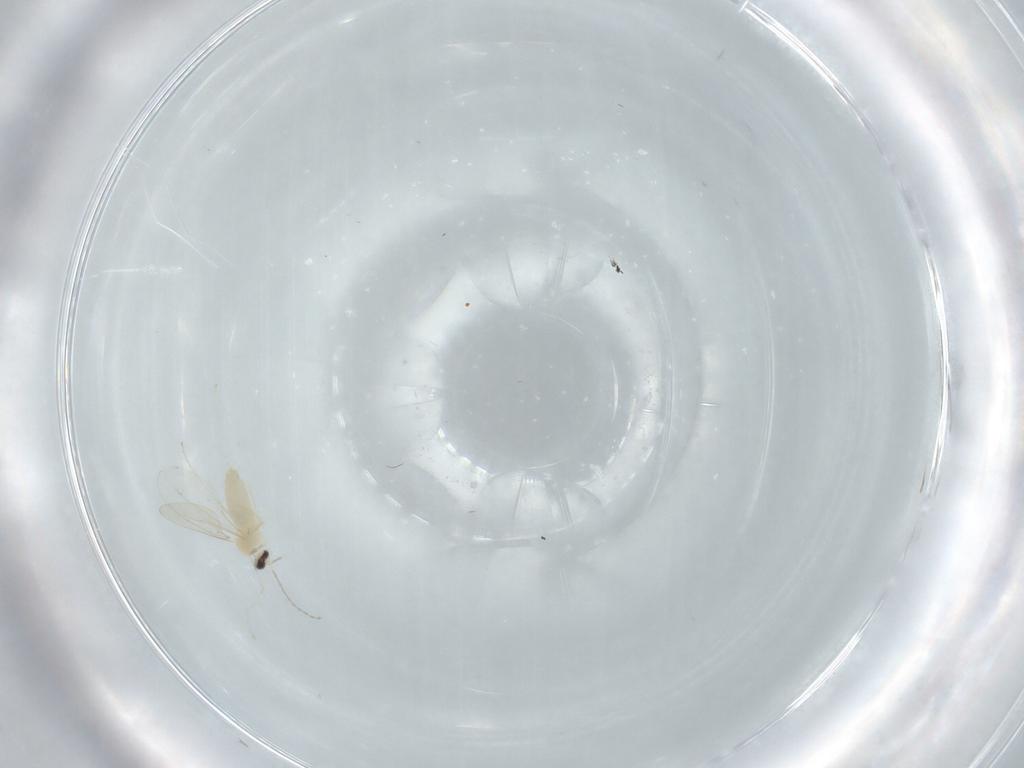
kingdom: Animalia
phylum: Arthropoda
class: Insecta
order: Diptera
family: Cecidomyiidae
